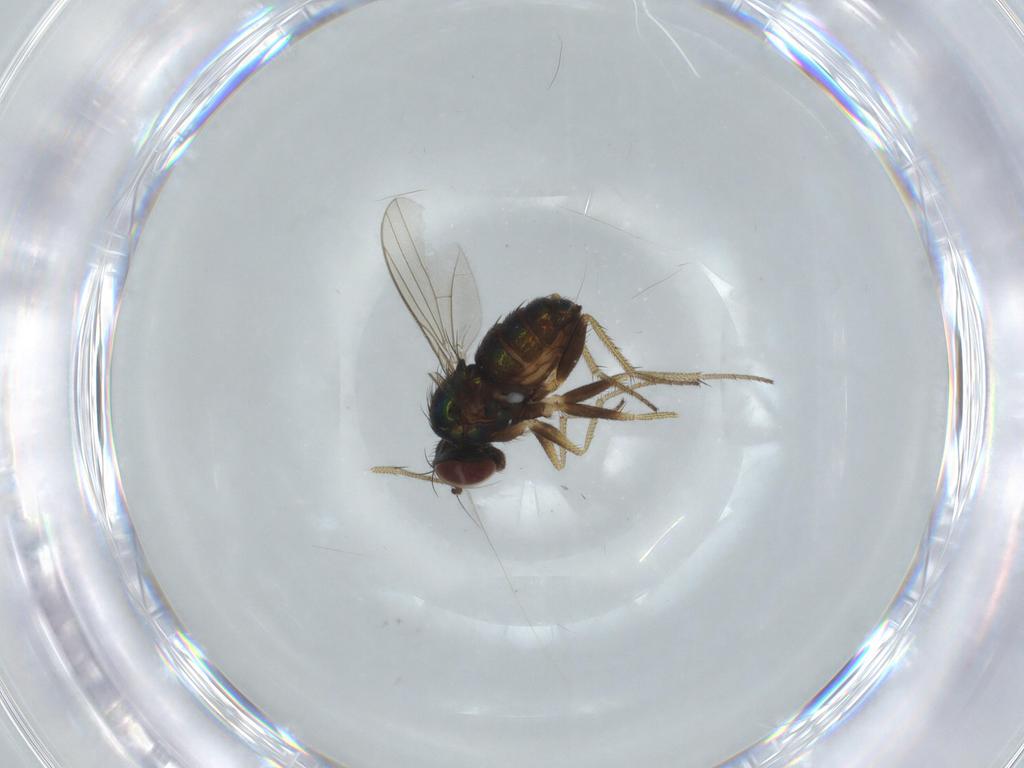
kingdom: Animalia
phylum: Arthropoda
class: Insecta
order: Diptera
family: Dolichopodidae
